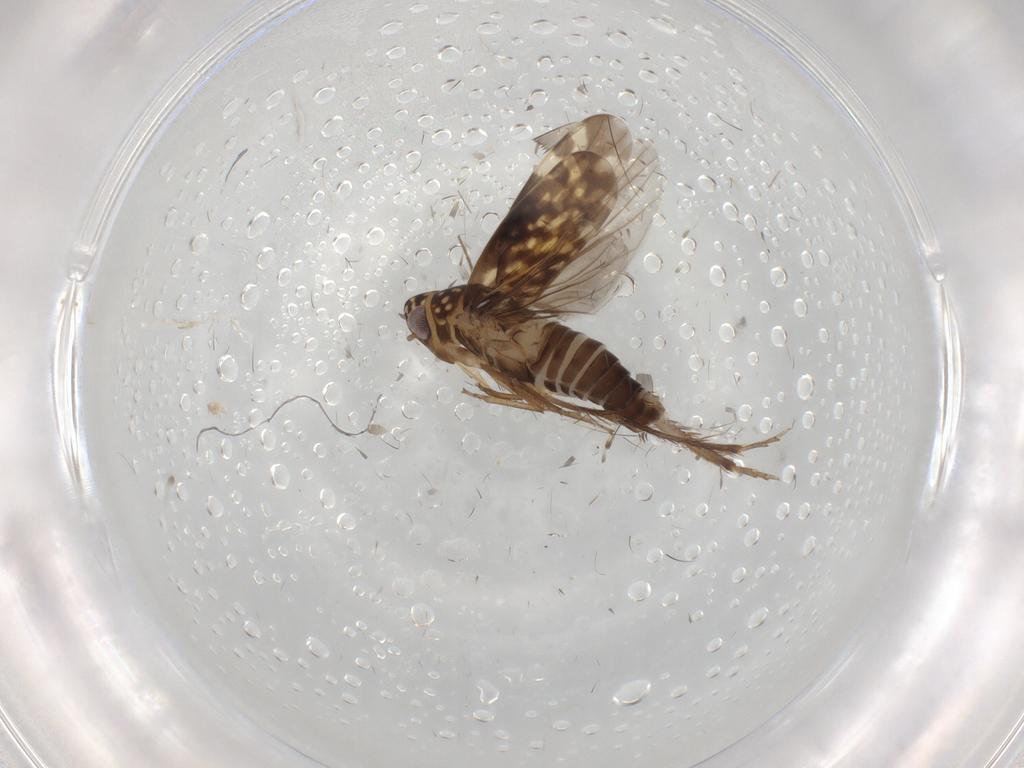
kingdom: Animalia
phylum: Arthropoda
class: Insecta
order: Hemiptera
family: Cicadellidae
